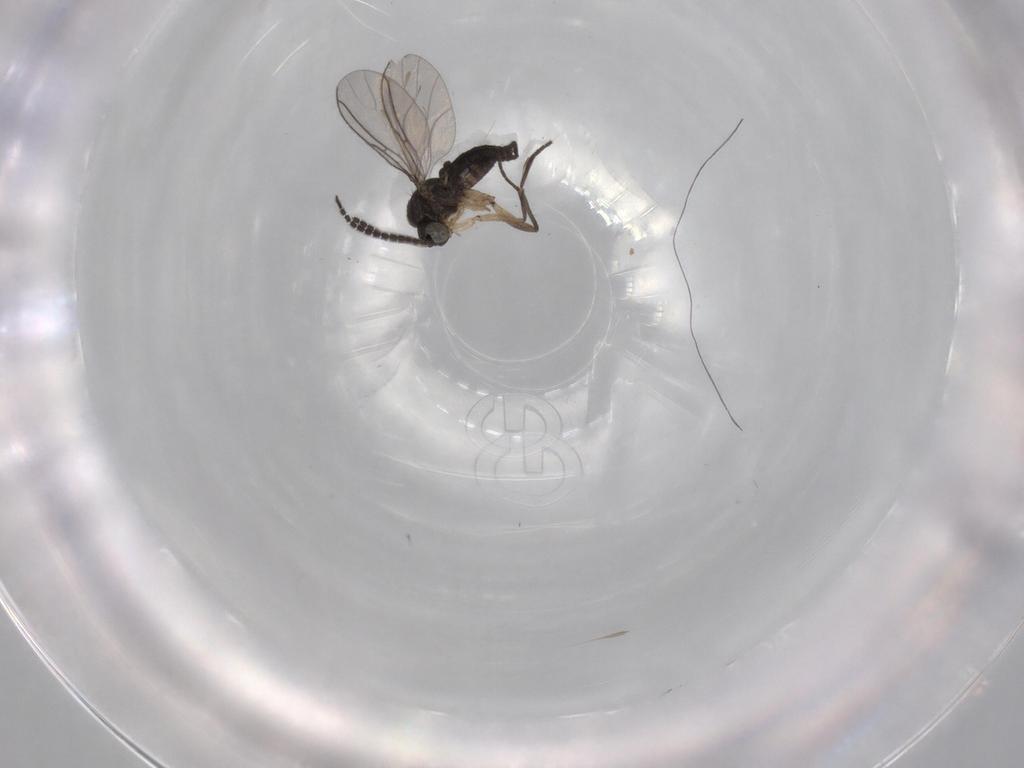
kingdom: Animalia
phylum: Arthropoda
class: Insecta
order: Diptera
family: Sciaridae
